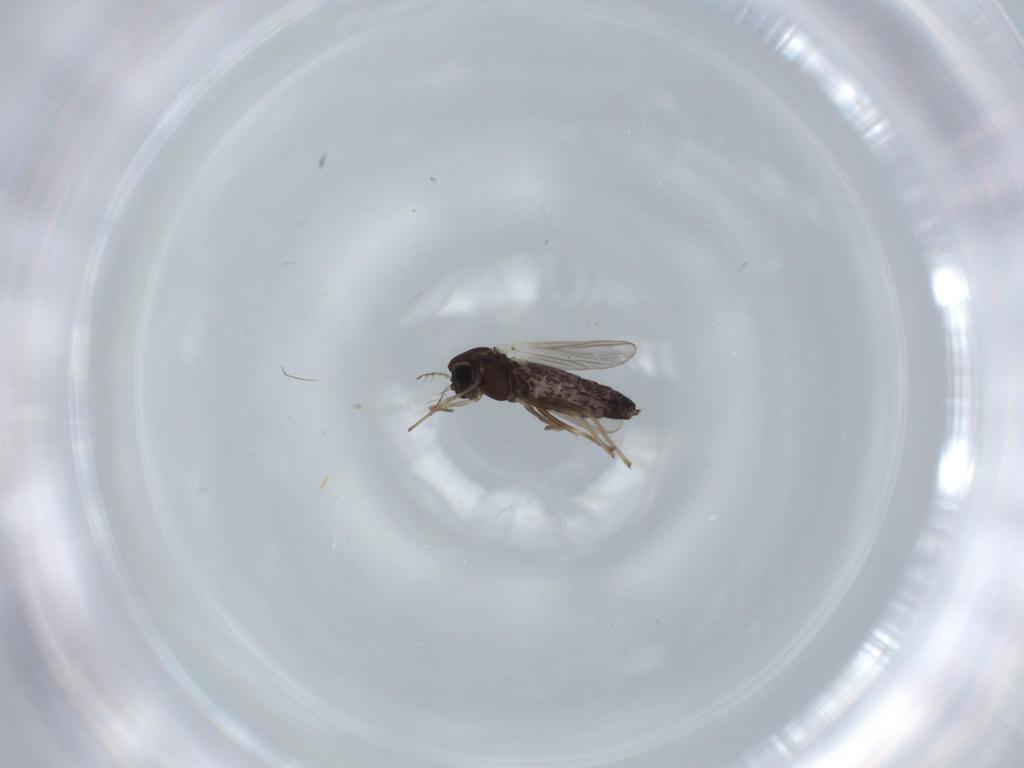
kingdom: Animalia
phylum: Arthropoda
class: Insecta
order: Diptera
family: Chironomidae
